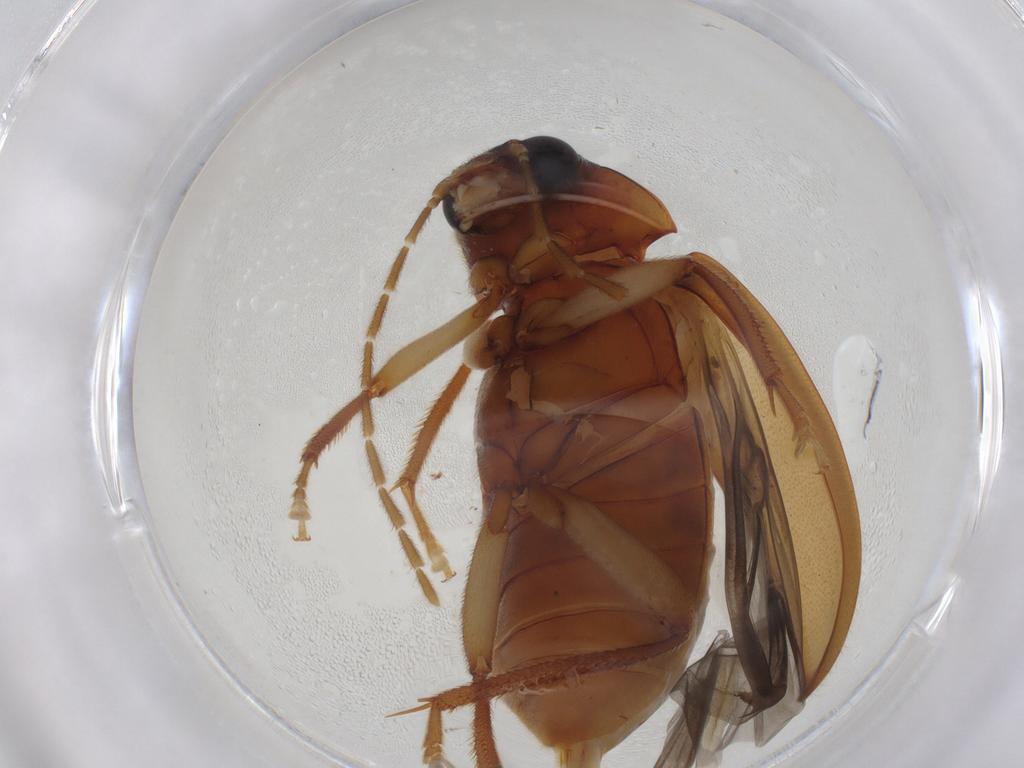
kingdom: Animalia
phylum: Arthropoda
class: Insecta
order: Coleoptera
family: Ptilodactylidae
